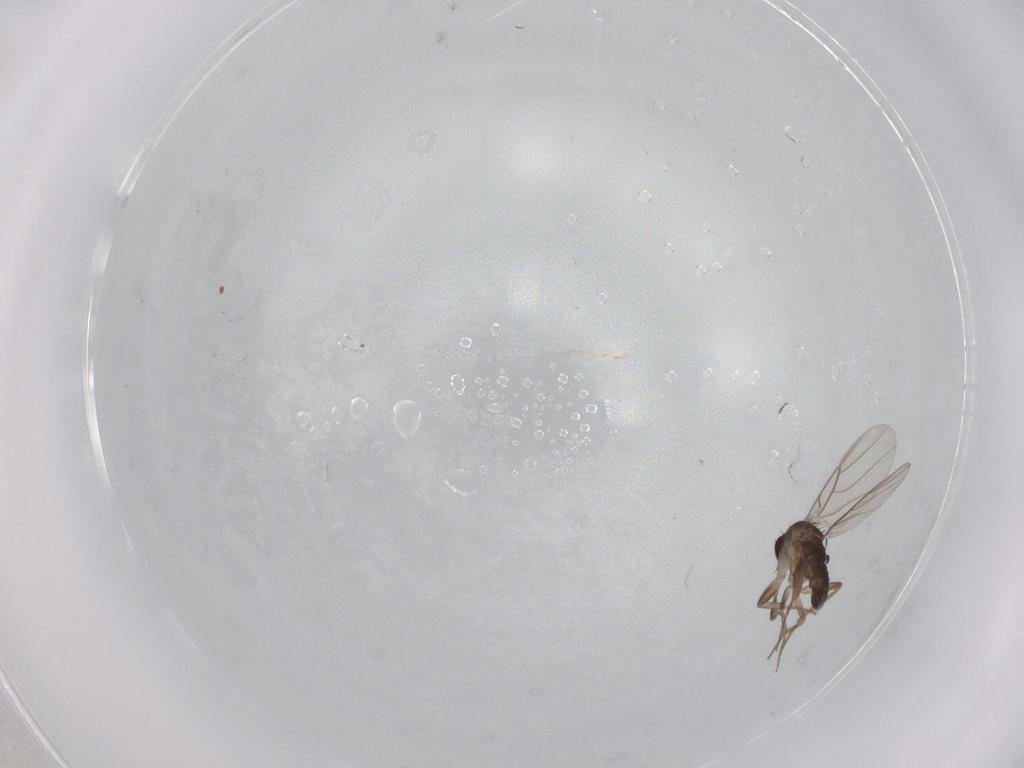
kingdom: Animalia
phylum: Arthropoda
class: Insecta
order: Diptera
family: Phoridae
